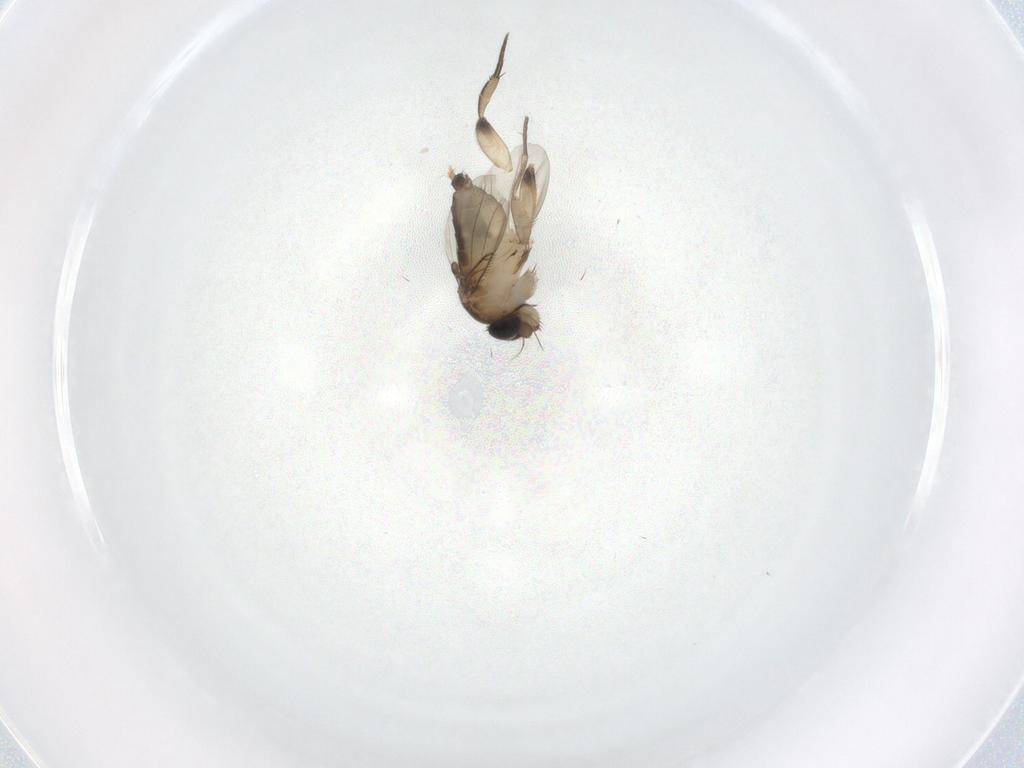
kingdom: Animalia
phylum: Arthropoda
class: Insecta
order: Diptera
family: Phoridae
